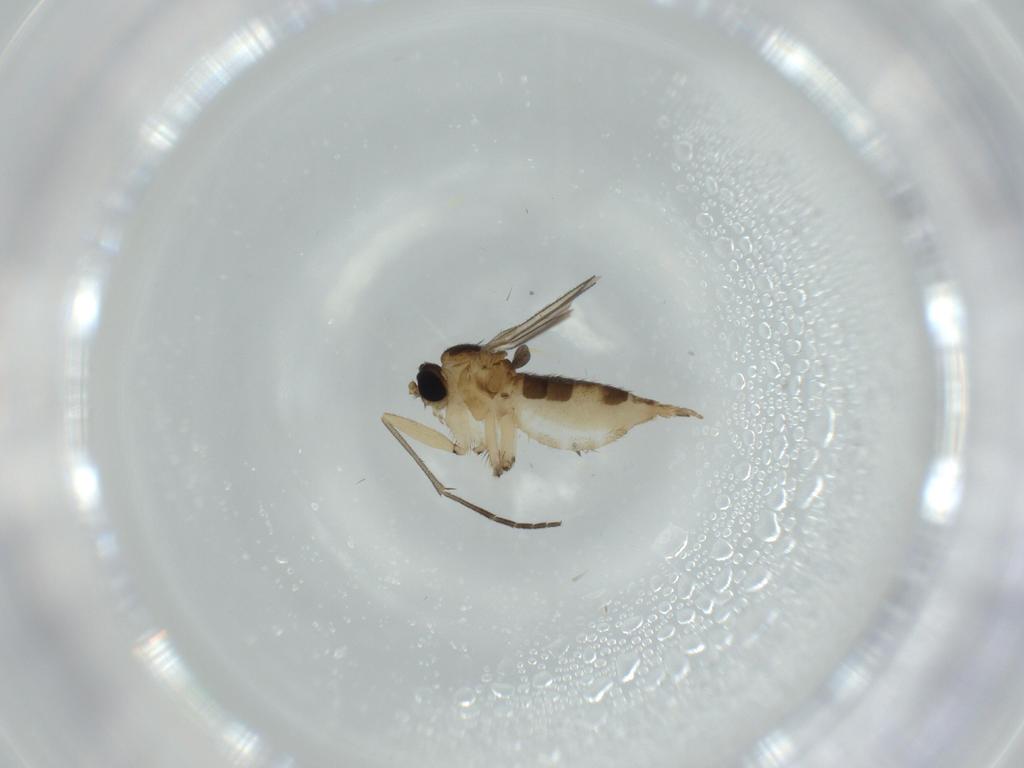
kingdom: Animalia
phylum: Arthropoda
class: Insecta
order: Diptera
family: Sciaridae
